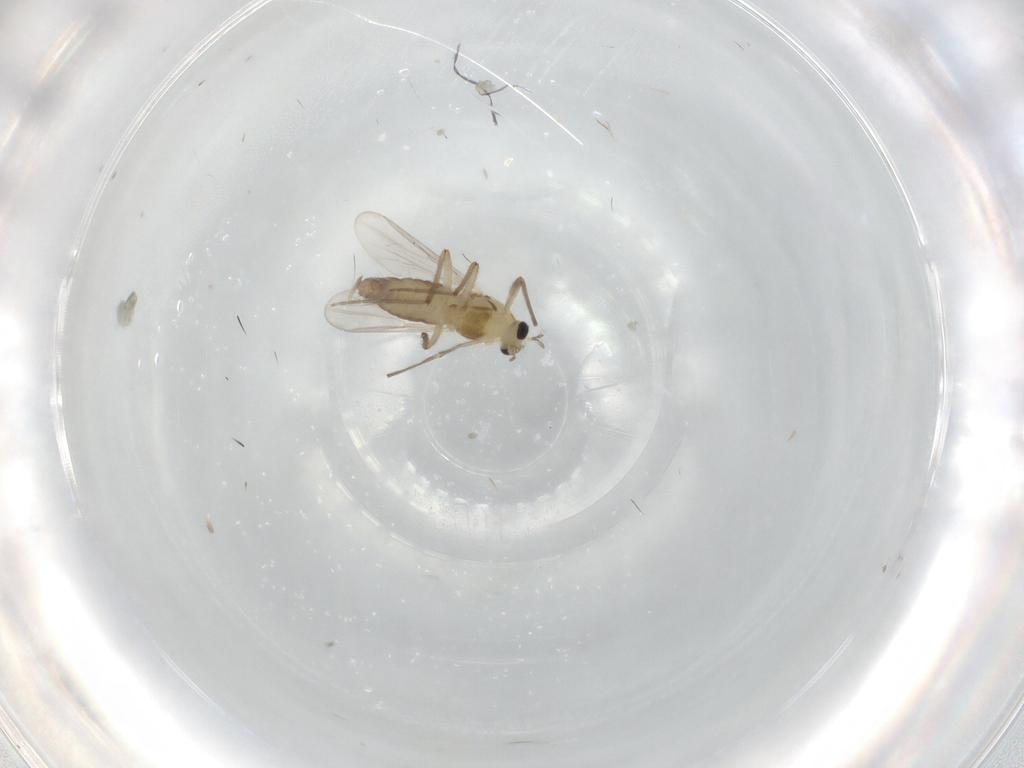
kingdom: Animalia
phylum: Arthropoda
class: Insecta
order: Diptera
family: Chironomidae
